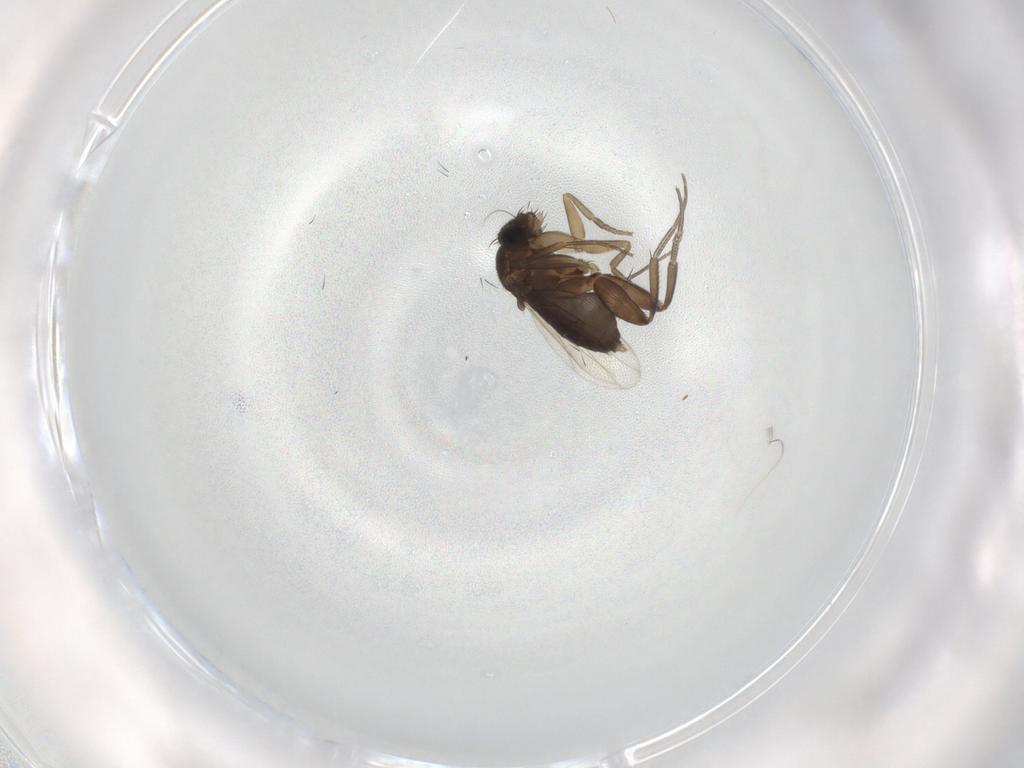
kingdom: Animalia
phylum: Arthropoda
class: Insecta
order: Diptera
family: Phoridae
